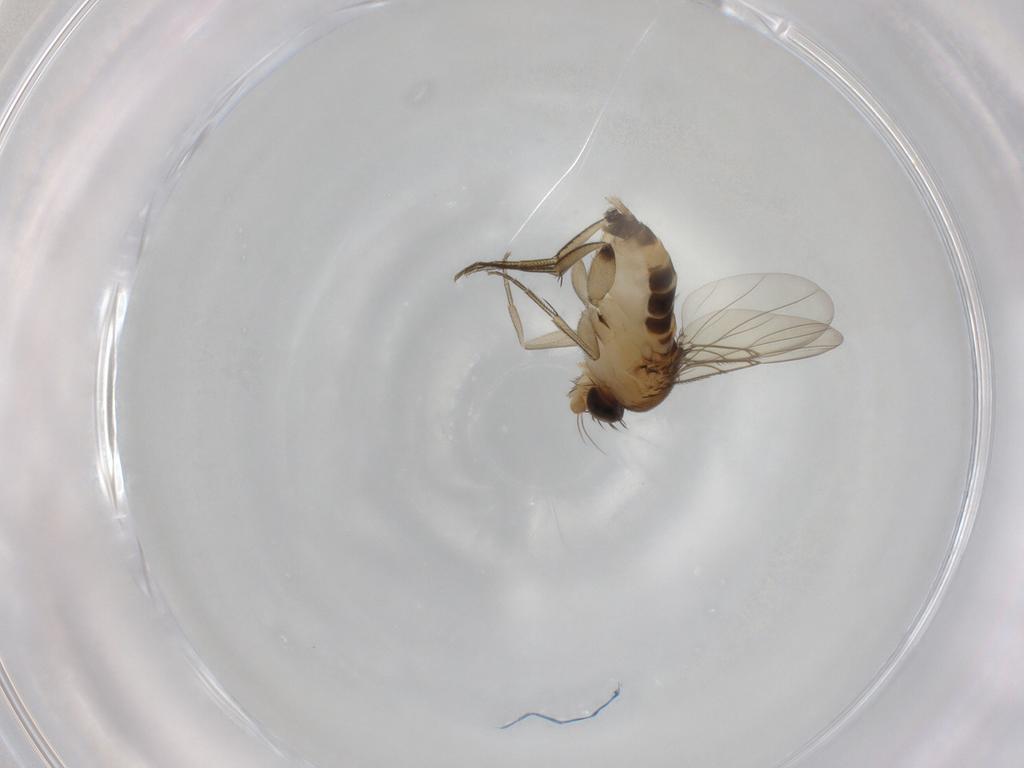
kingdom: Animalia
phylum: Arthropoda
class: Insecta
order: Diptera
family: Phoridae
